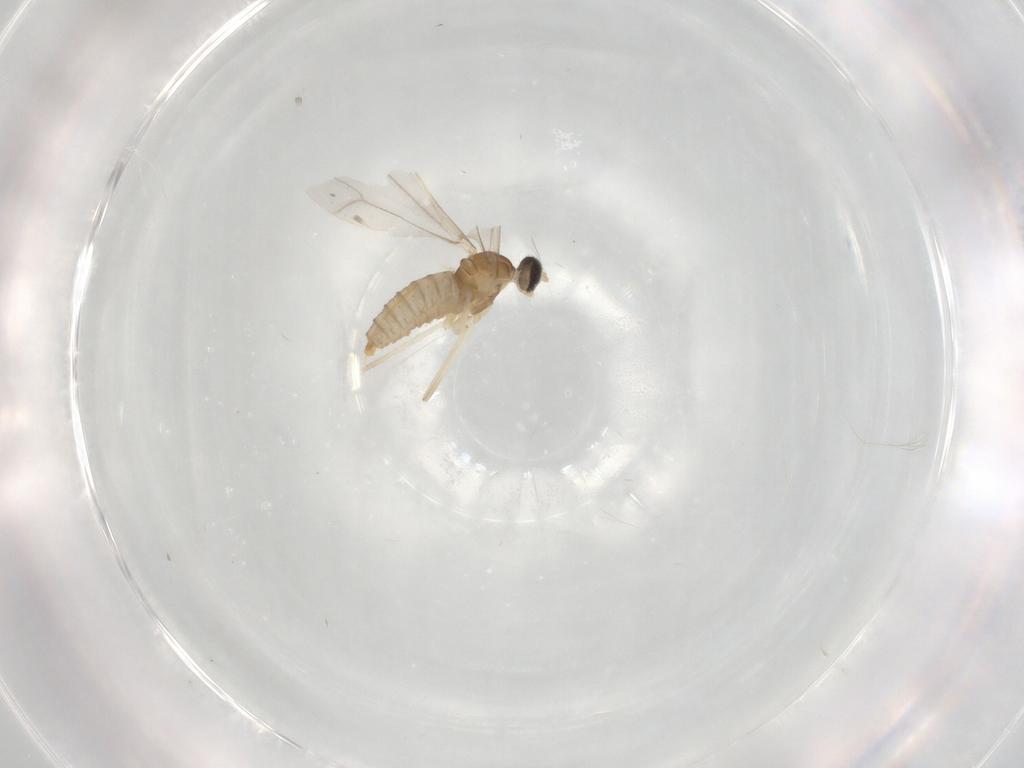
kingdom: Animalia
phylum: Arthropoda
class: Insecta
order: Diptera
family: Cecidomyiidae
